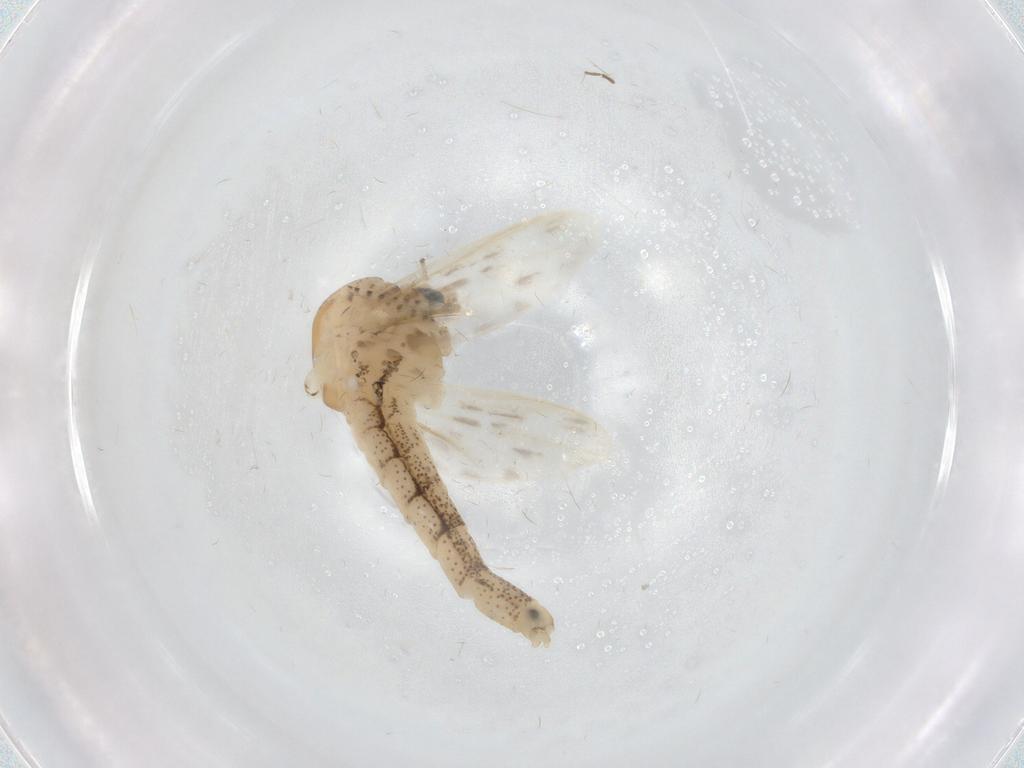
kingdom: Animalia
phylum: Arthropoda
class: Insecta
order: Diptera
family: Chaoboridae
